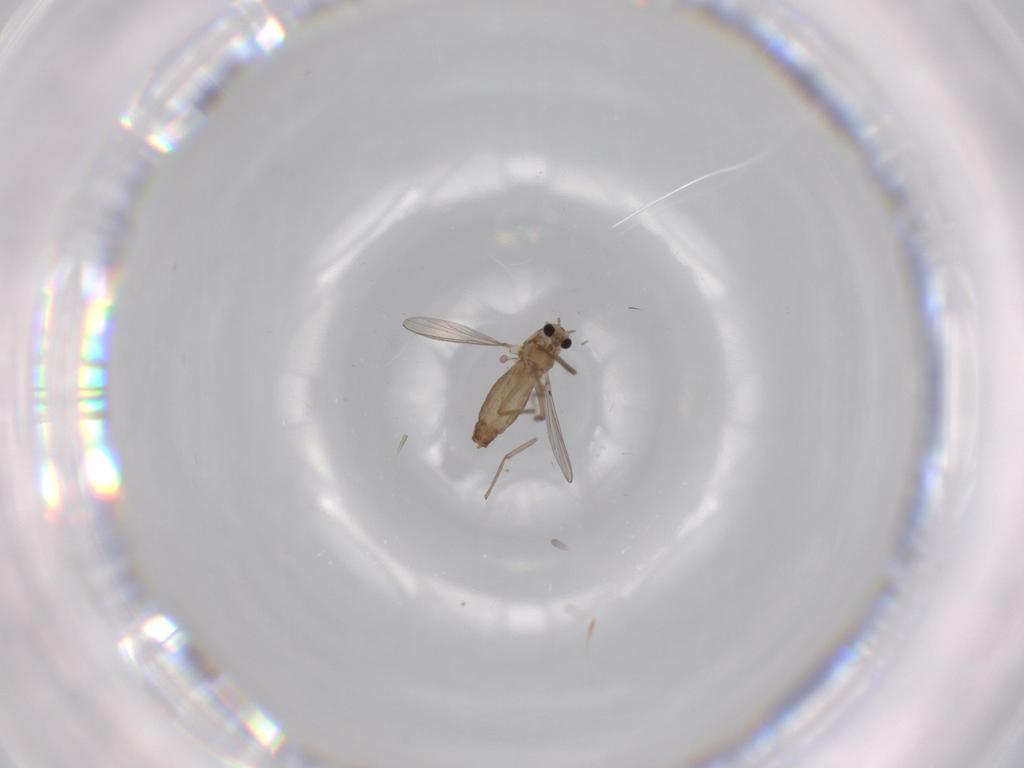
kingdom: Animalia
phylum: Arthropoda
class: Insecta
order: Diptera
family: Chironomidae
